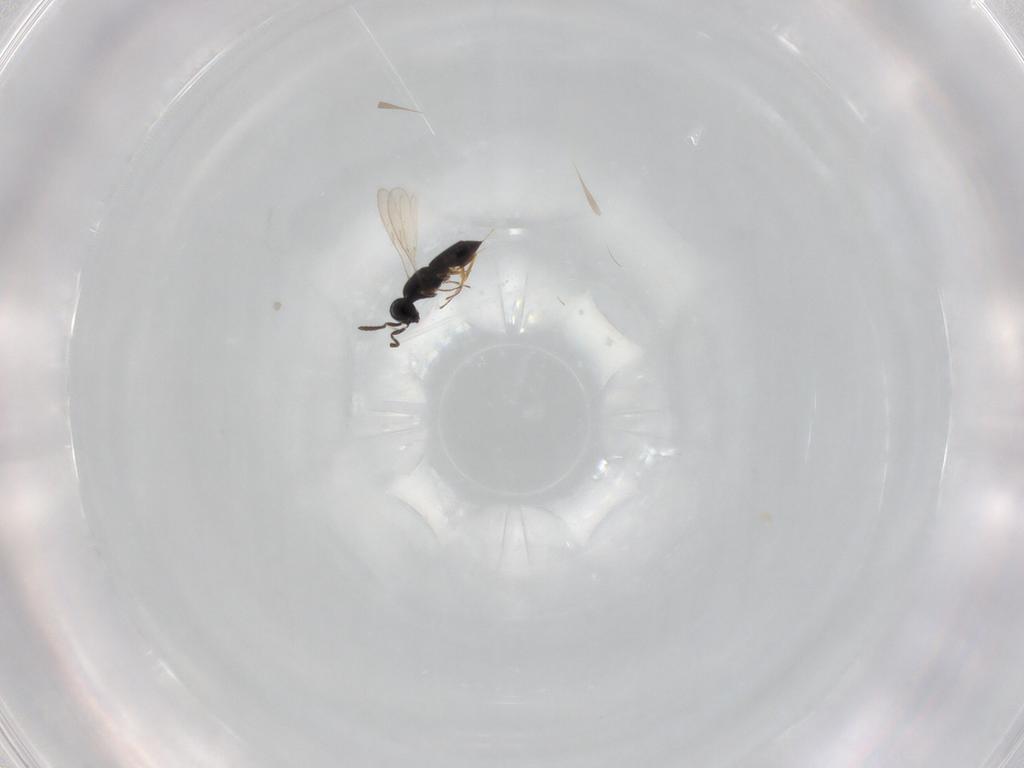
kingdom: Animalia
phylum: Arthropoda
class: Insecta
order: Hymenoptera
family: Scelionidae
